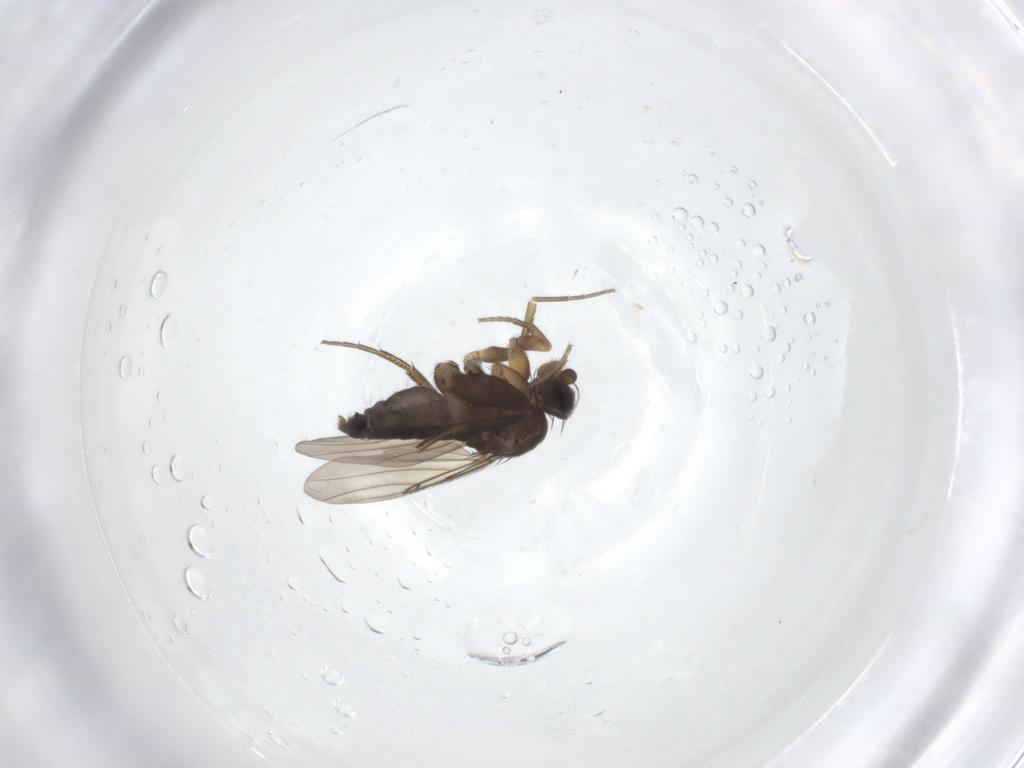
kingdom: Animalia
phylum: Arthropoda
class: Insecta
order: Diptera
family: Phoridae
